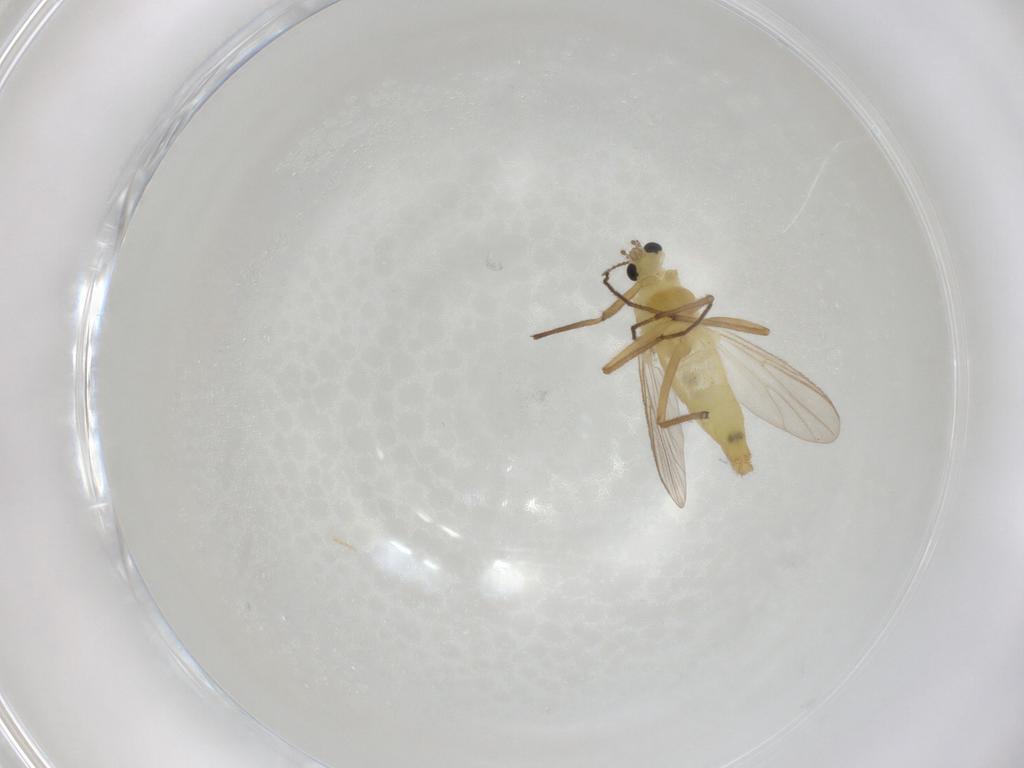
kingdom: Animalia
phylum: Arthropoda
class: Insecta
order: Diptera
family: Chironomidae
